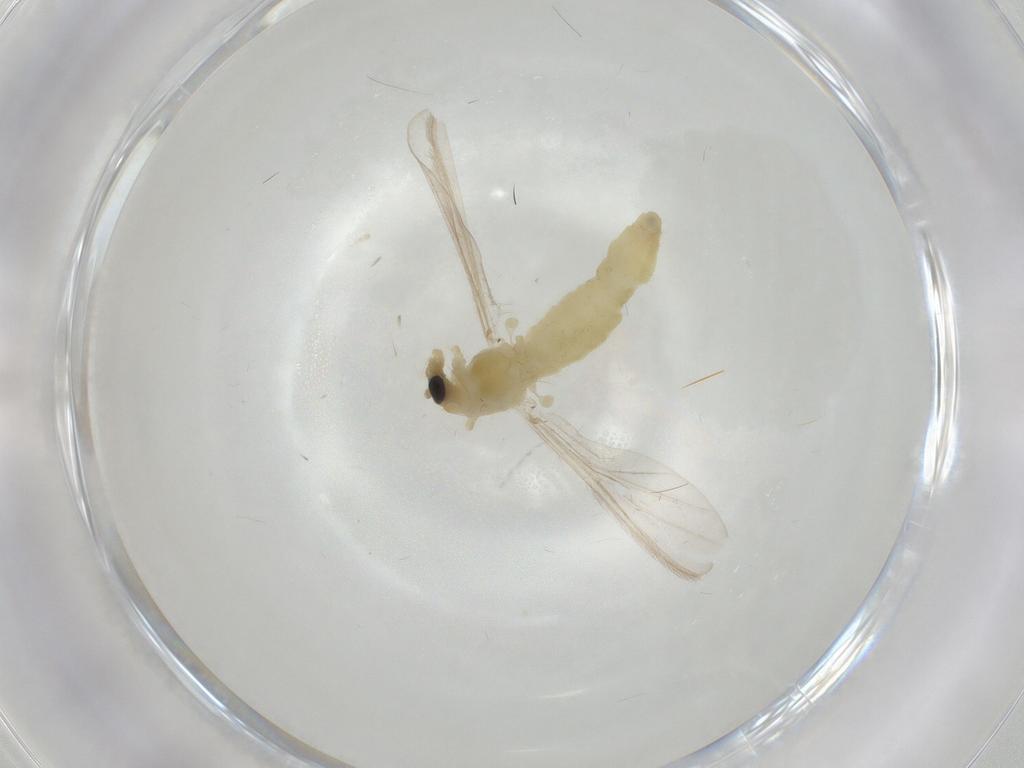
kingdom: Animalia
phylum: Arthropoda
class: Insecta
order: Diptera
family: Chironomidae
